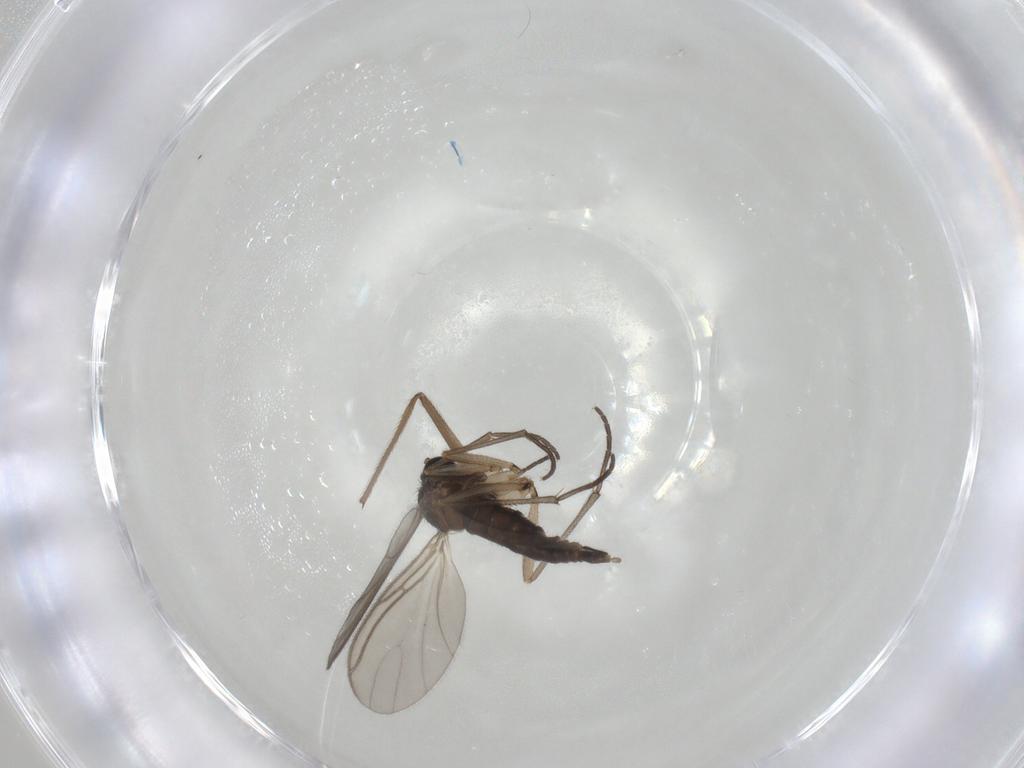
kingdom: Animalia
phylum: Arthropoda
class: Insecta
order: Diptera
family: Sciaridae
